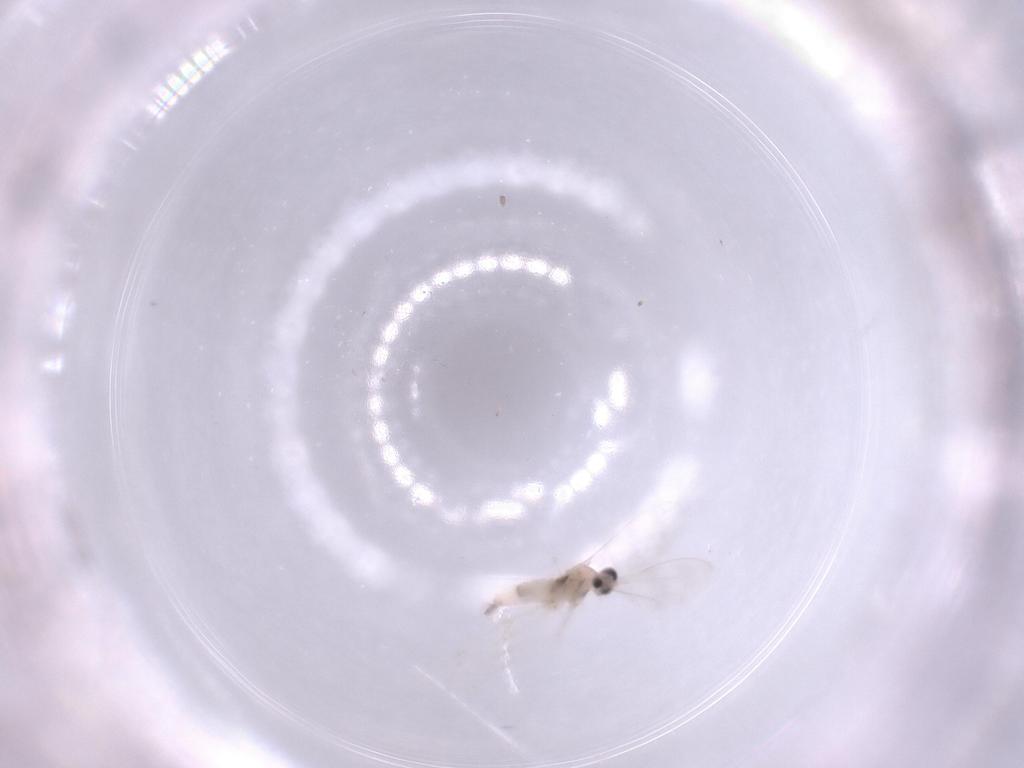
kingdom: Animalia
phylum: Arthropoda
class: Insecta
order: Diptera
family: Cecidomyiidae
